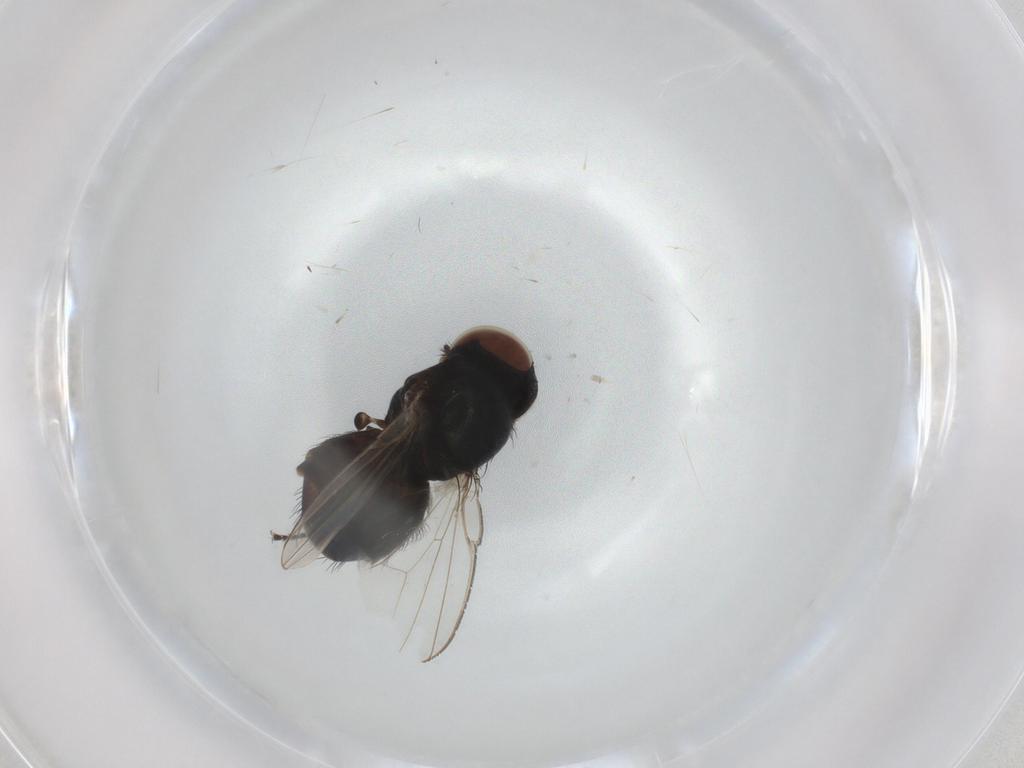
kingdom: Animalia
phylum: Arthropoda
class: Insecta
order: Diptera
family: Milichiidae
